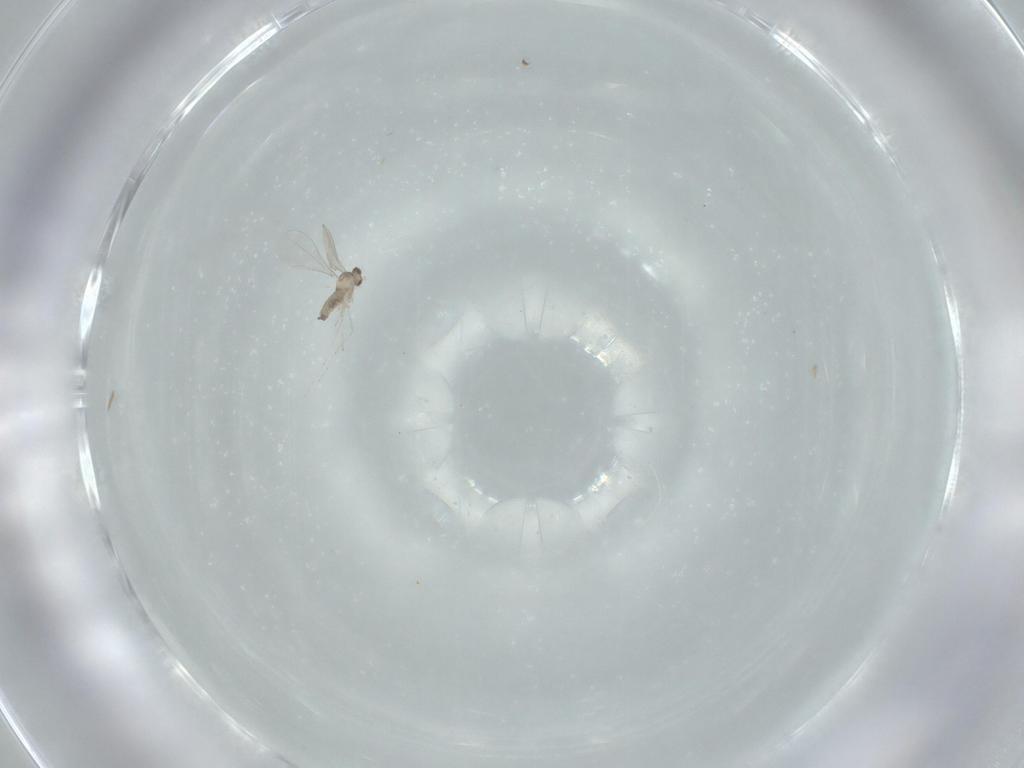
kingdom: Animalia
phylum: Arthropoda
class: Insecta
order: Diptera
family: Cecidomyiidae
